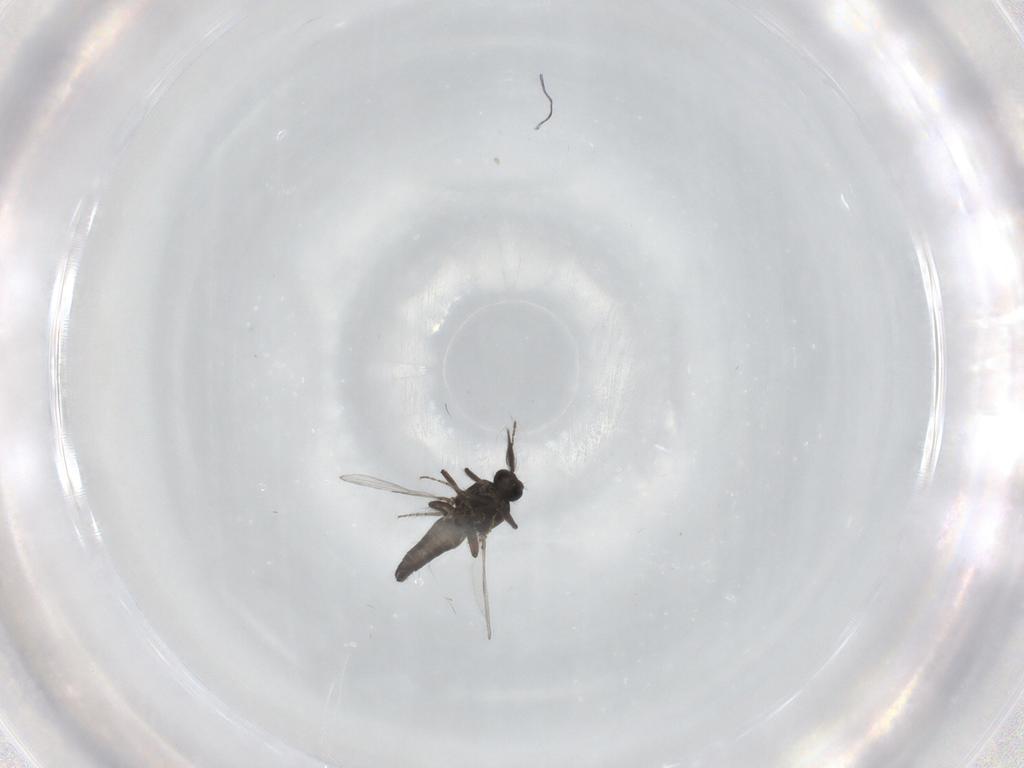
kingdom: Animalia
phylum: Arthropoda
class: Insecta
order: Diptera
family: Ceratopogonidae
